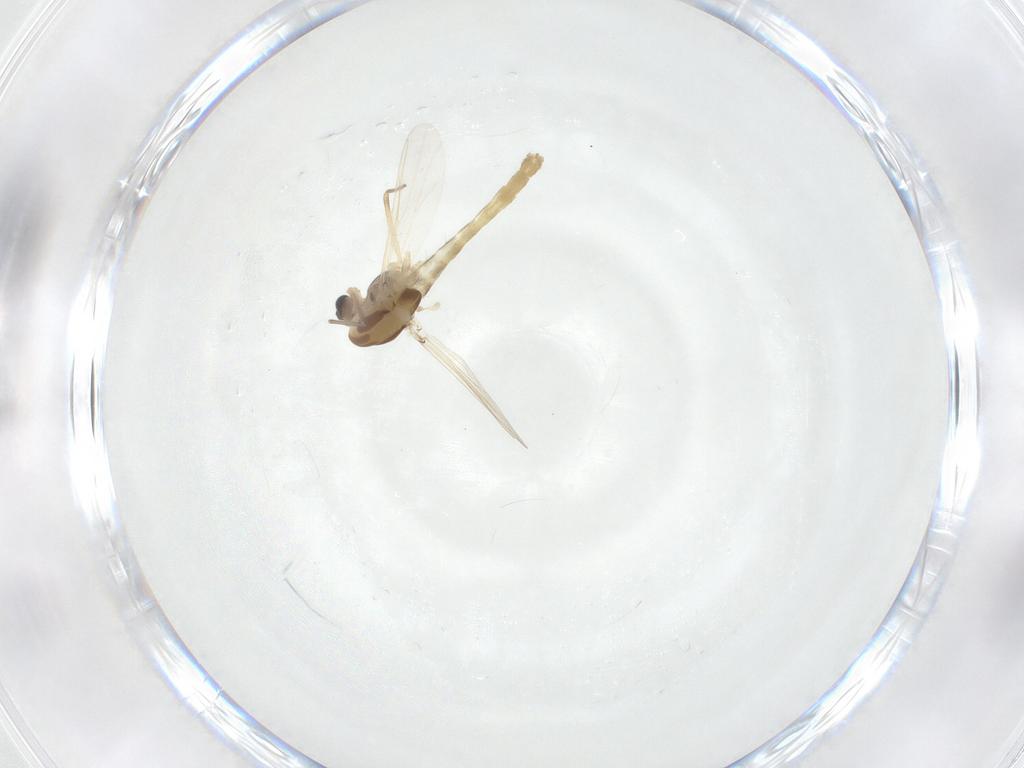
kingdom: Animalia
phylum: Arthropoda
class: Insecta
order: Diptera
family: Chironomidae
